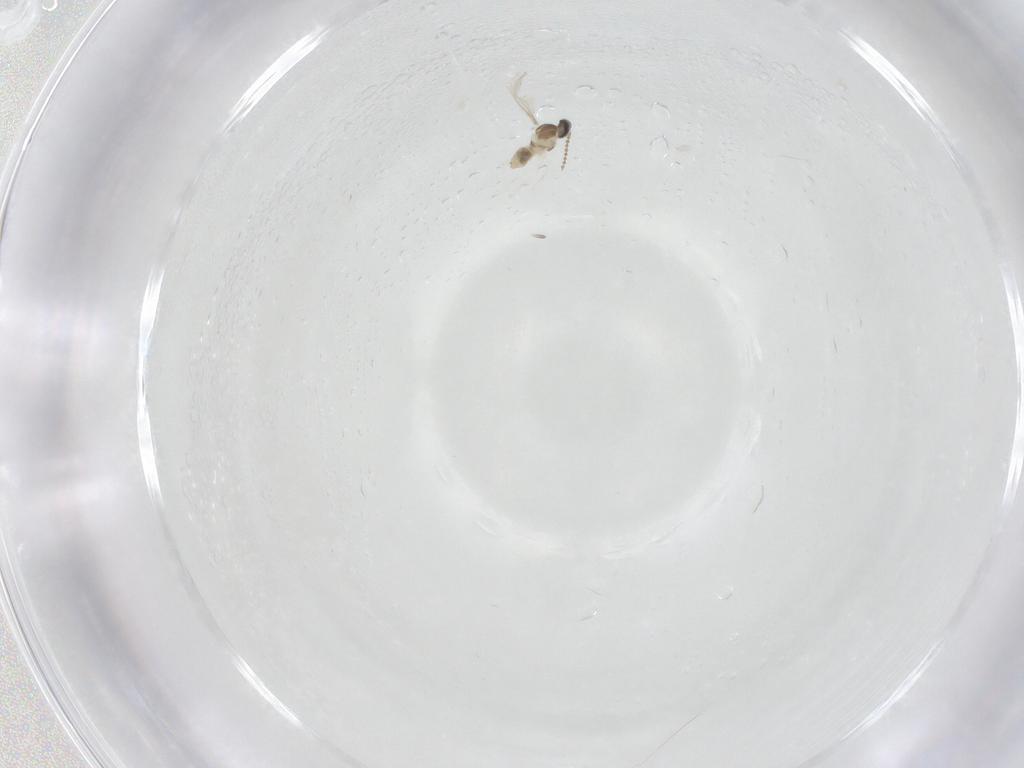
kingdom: Animalia
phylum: Arthropoda
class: Insecta
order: Diptera
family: Cecidomyiidae
